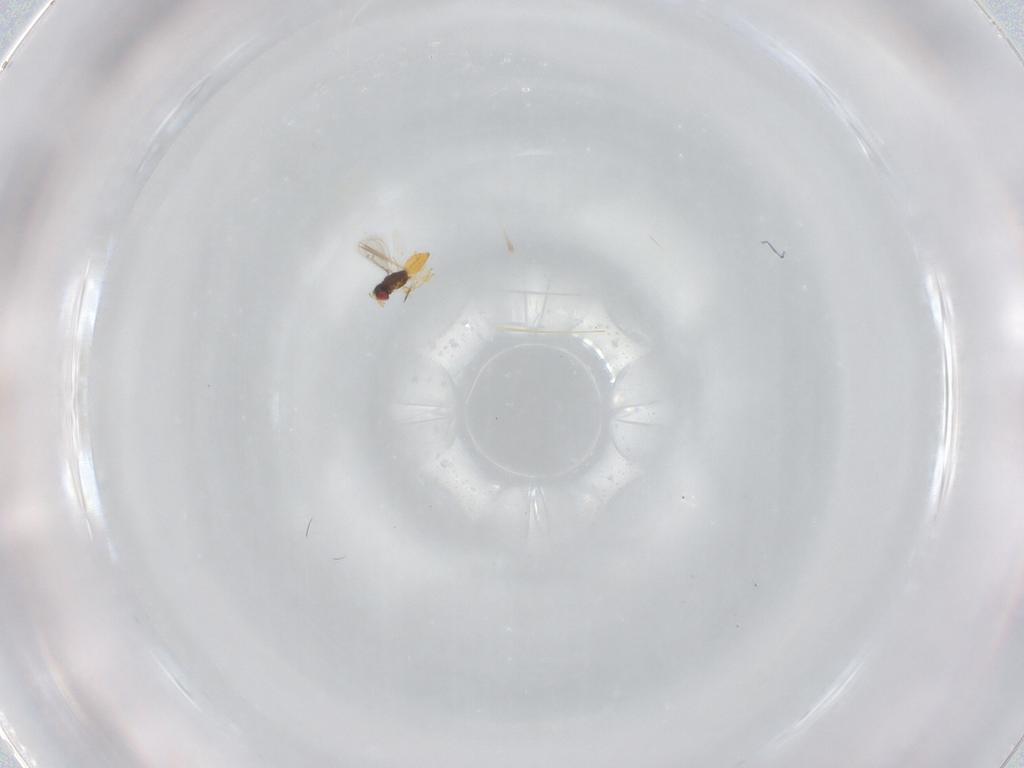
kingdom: Animalia
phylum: Arthropoda
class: Insecta
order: Hymenoptera
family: Eulophidae
